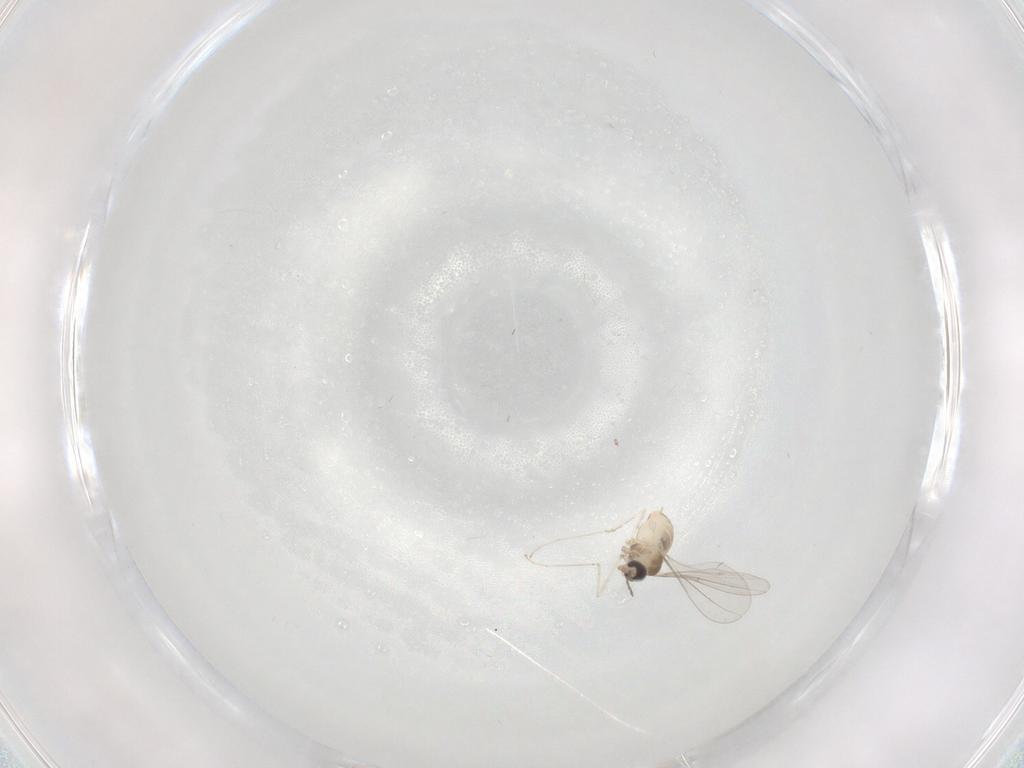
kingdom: Animalia
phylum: Arthropoda
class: Insecta
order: Diptera
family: Cecidomyiidae
